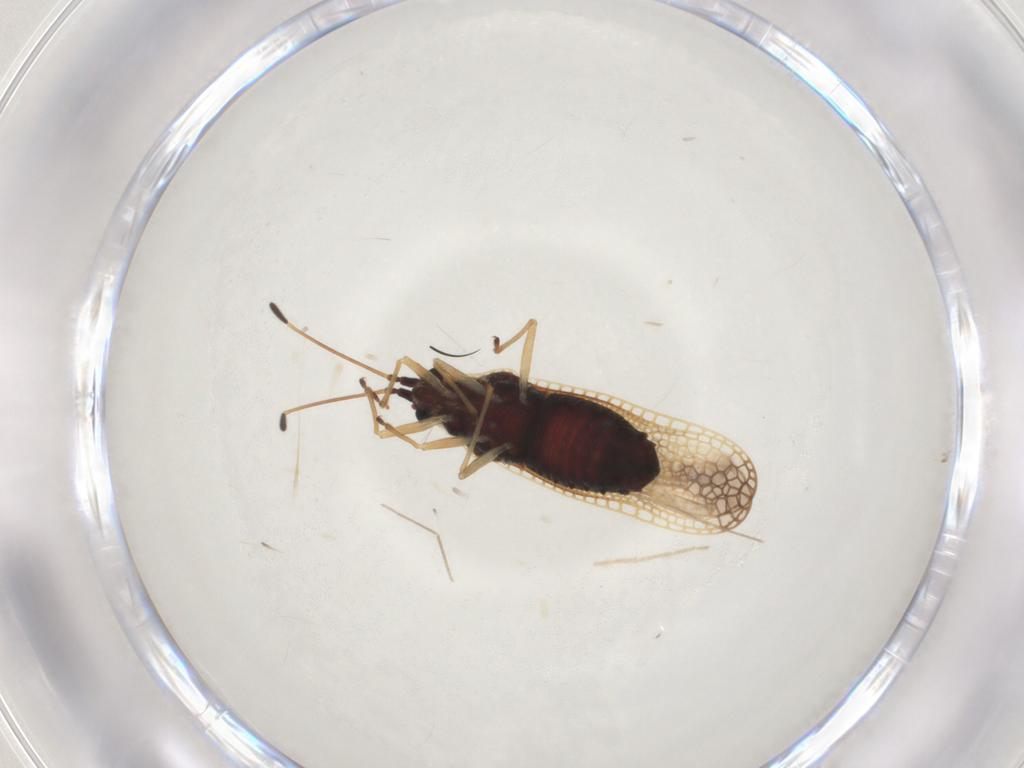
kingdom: Animalia
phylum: Arthropoda
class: Insecta
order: Hemiptera
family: Tingidae
